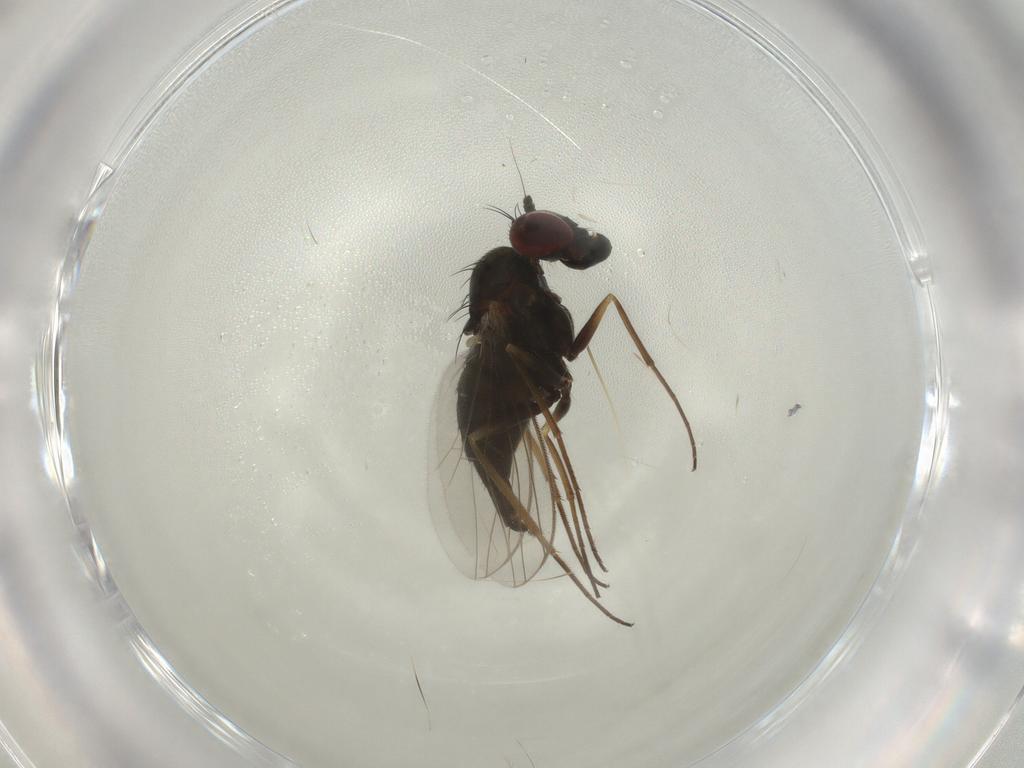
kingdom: Animalia
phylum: Arthropoda
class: Insecta
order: Diptera
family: Dolichopodidae
